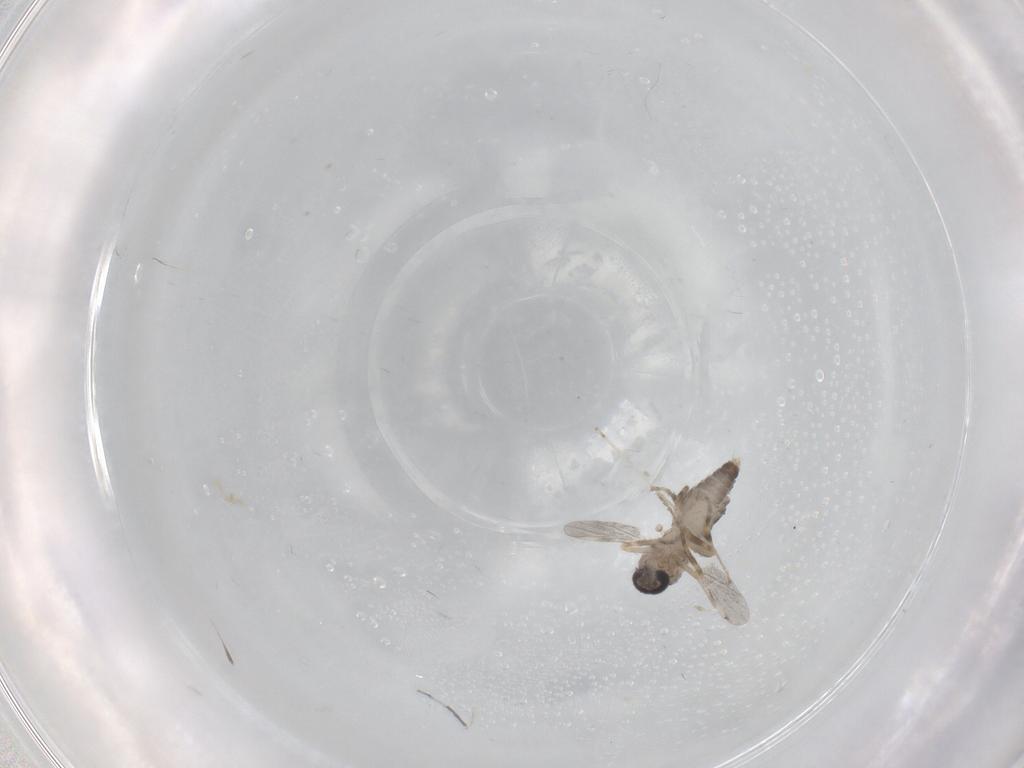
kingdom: Animalia
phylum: Arthropoda
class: Insecta
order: Diptera
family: Ceratopogonidae
